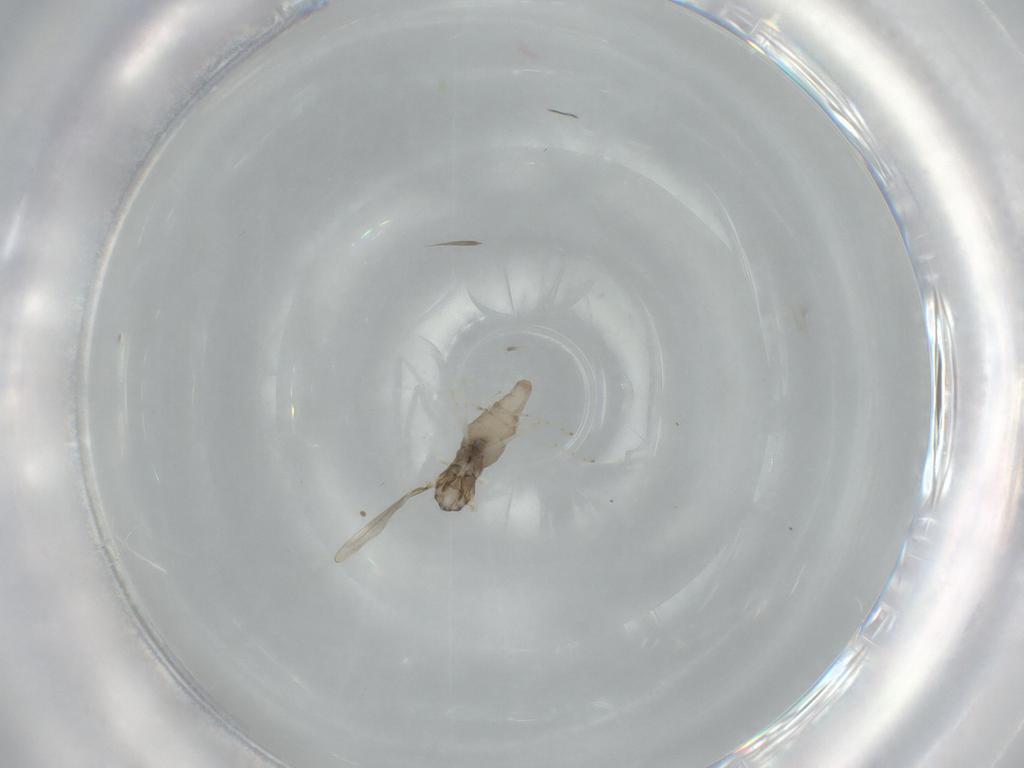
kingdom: Animalia
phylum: Arthropoda
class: Insecta
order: Diptera
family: Cecidomyiidae
